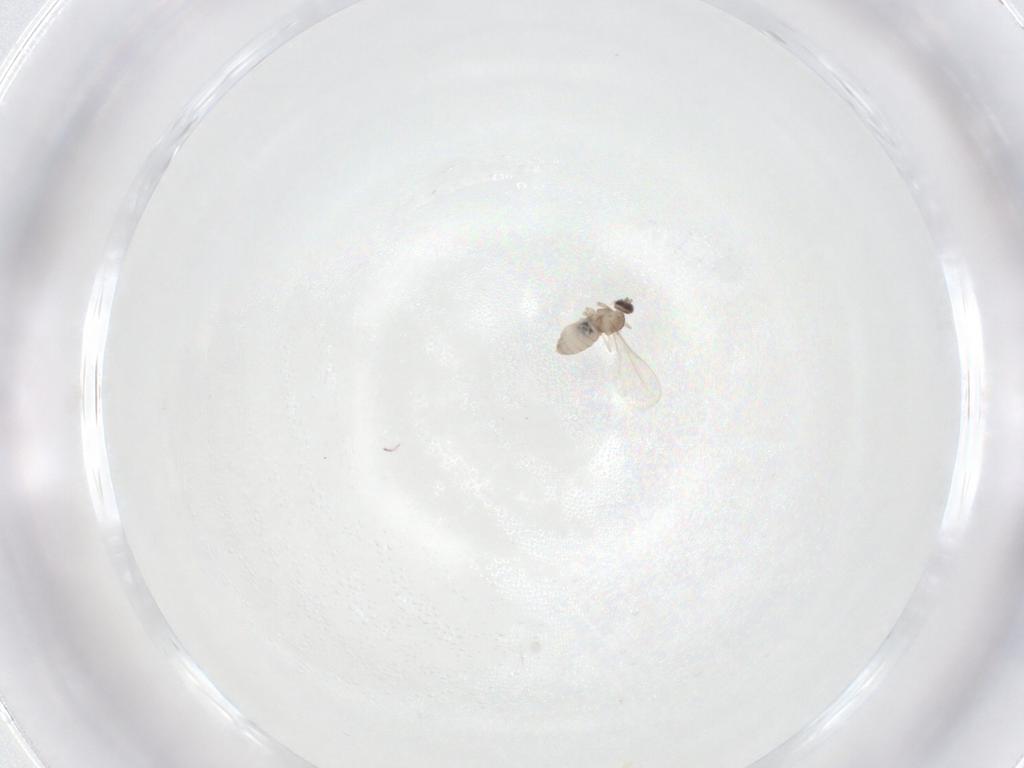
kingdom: Animalia
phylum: Arthropoda
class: Insecta
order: Diptera
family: Cecidomyiidae
